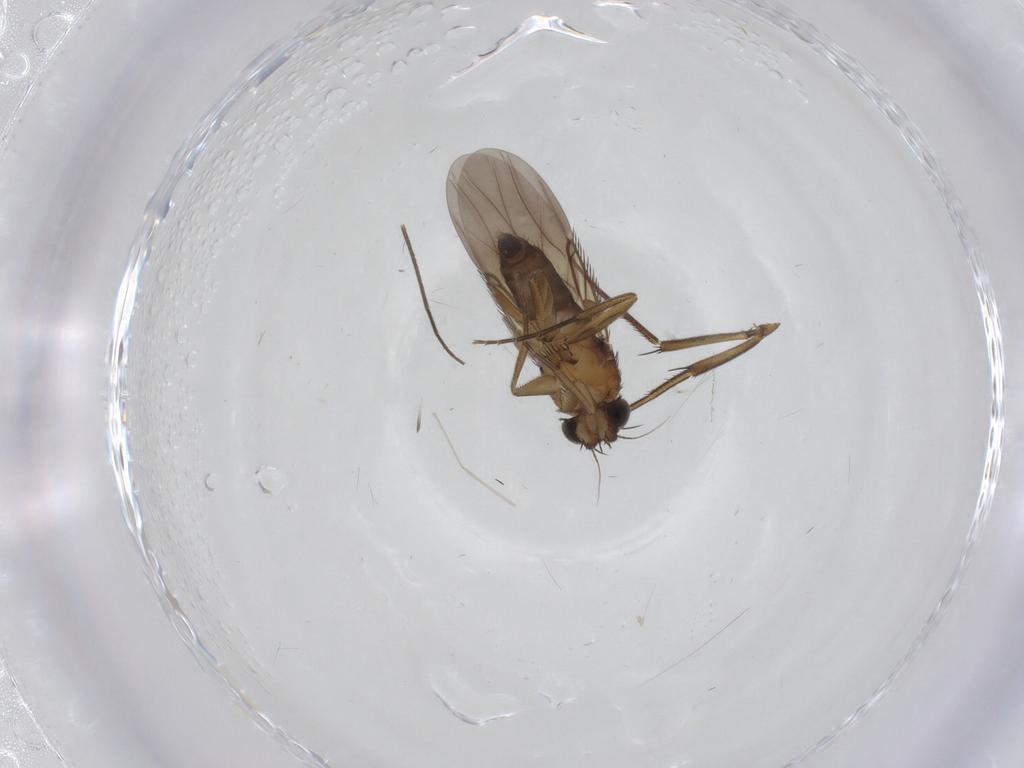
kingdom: Animalia
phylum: Arthropoda
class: Insecta
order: Diptera
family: Phoridae
